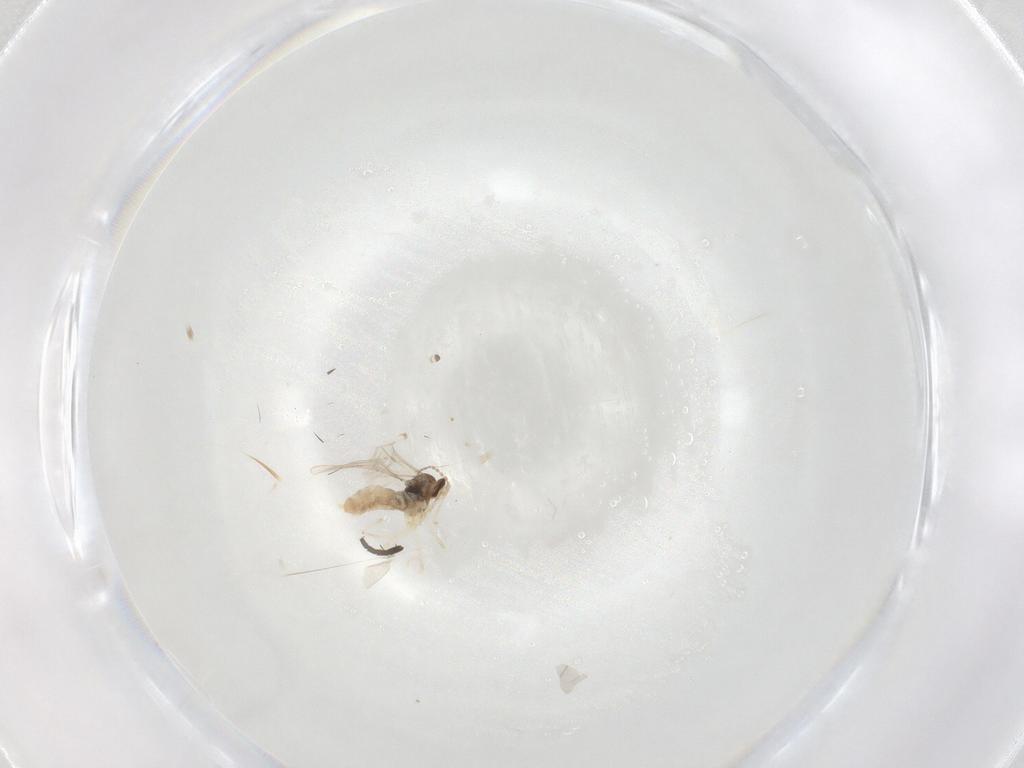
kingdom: Animalia
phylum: Arthropoda
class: Insecta
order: Diptera
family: Cecidomyiidae
